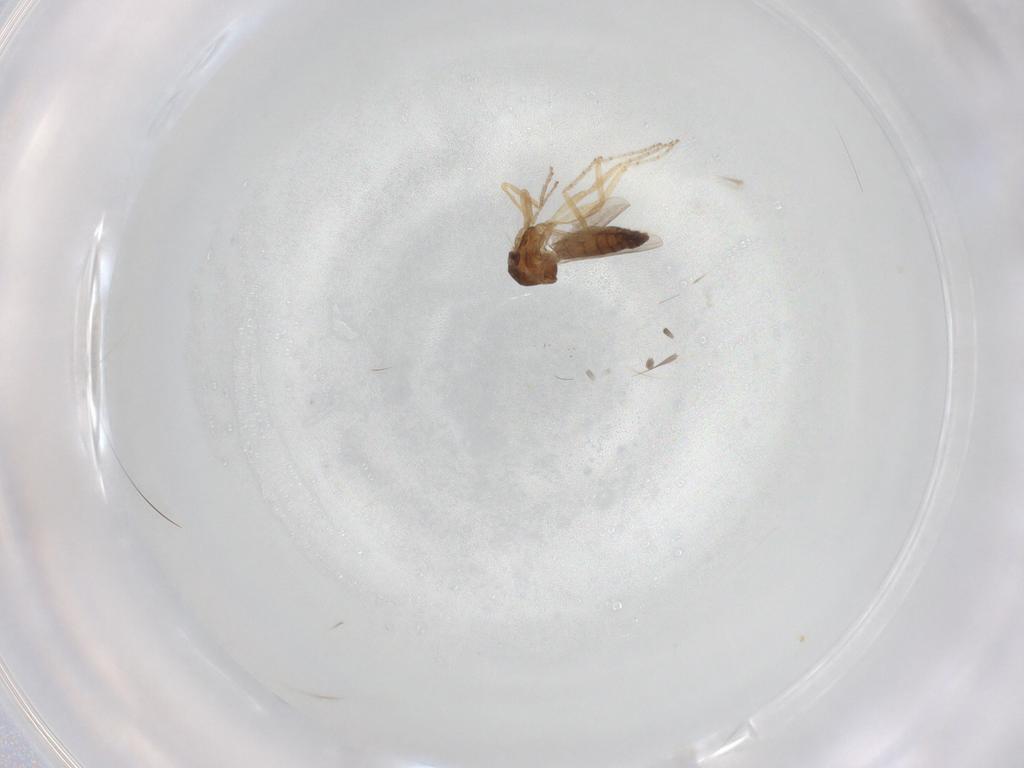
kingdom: Animalia
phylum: Arthropoda
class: Insecta
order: Diptera
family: Ceratopogonidae
